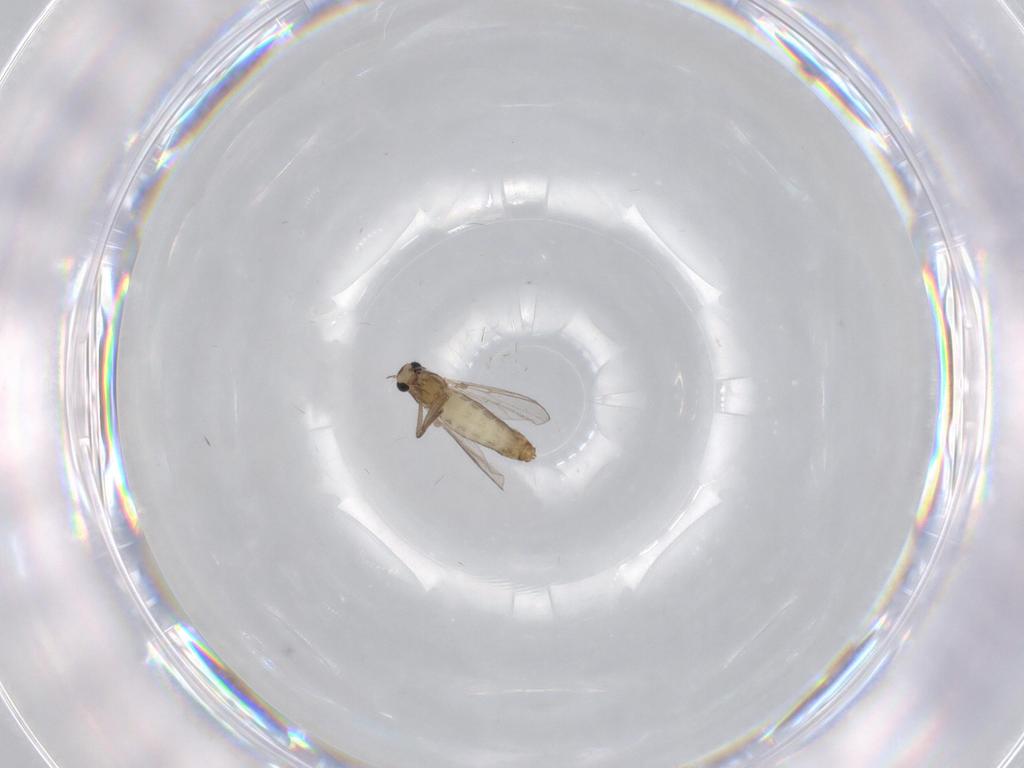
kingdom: Animalia
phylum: Arthropoda
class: Insecta
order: Diptera
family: Chironomidae
